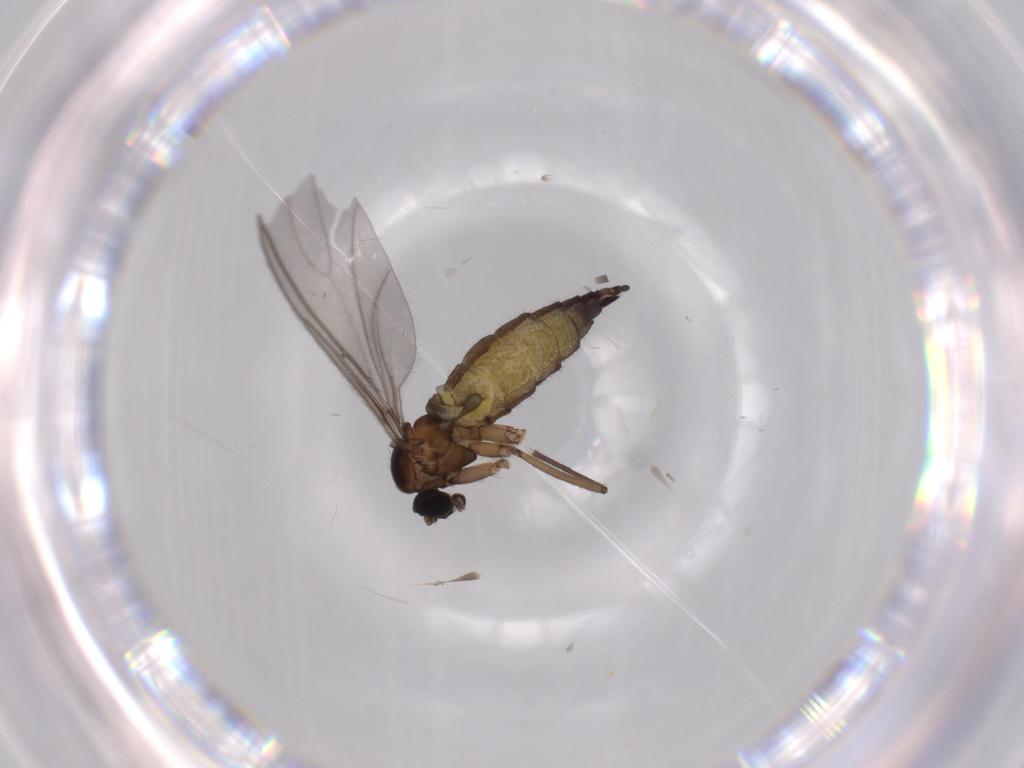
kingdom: Animalia
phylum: Arthropoda
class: Insecta
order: Diptera
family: Sciaridae
